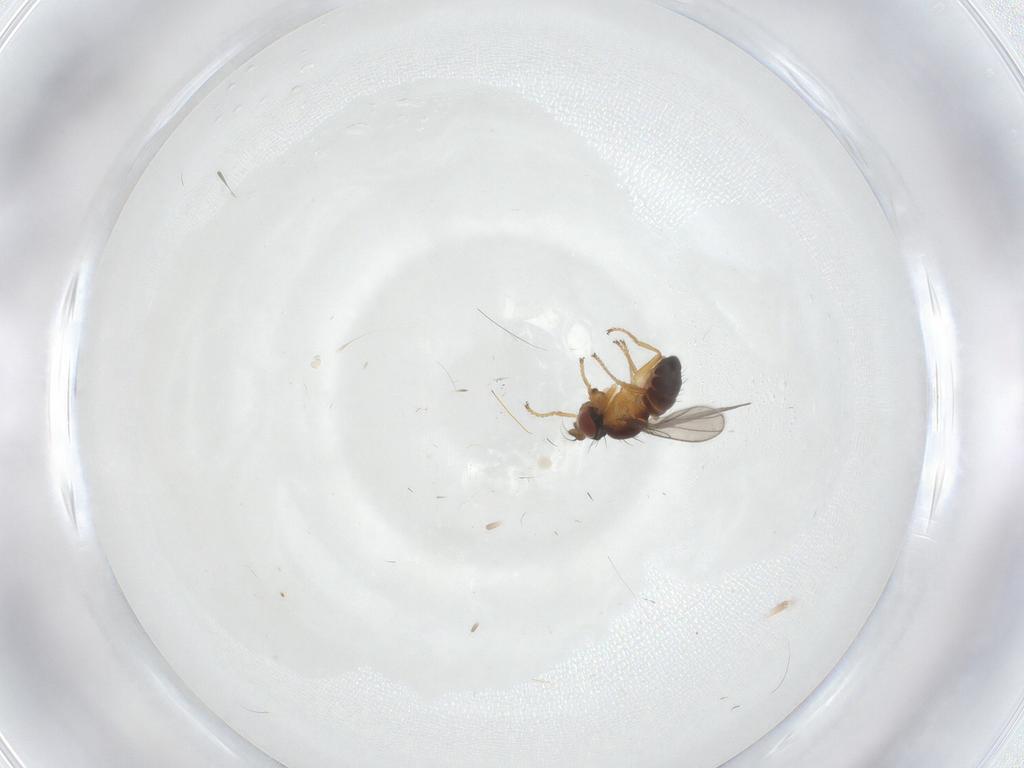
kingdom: Animalia
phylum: Arthropoda
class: Insecta
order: Diptera
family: Ephydridae
